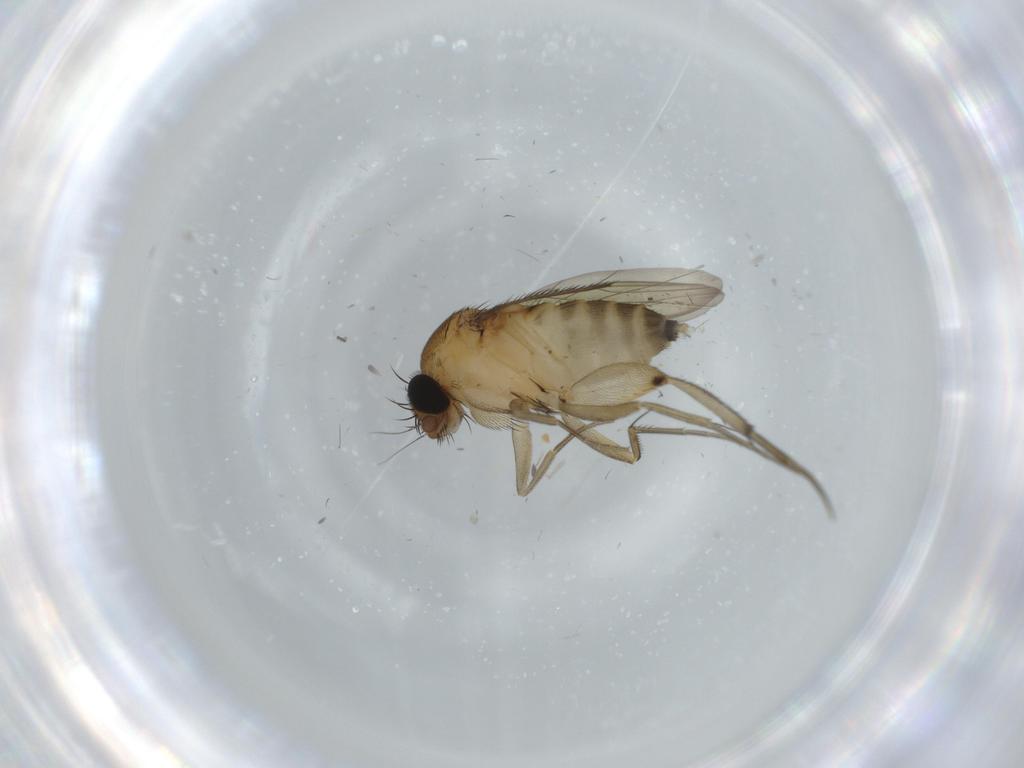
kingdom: Animalia
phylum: Arthropoda
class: Insecta
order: Diptera
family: Phoridae
